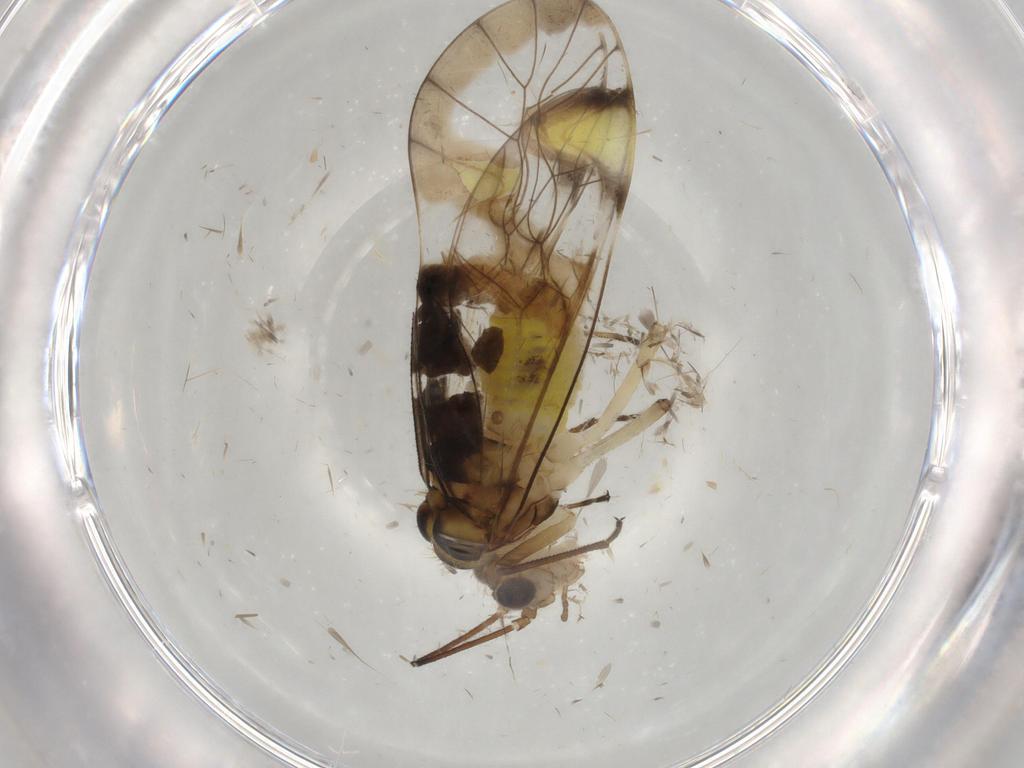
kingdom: Animalia
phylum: Arthropoda
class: Insecta
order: Psocodea
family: Amphipsocidae
